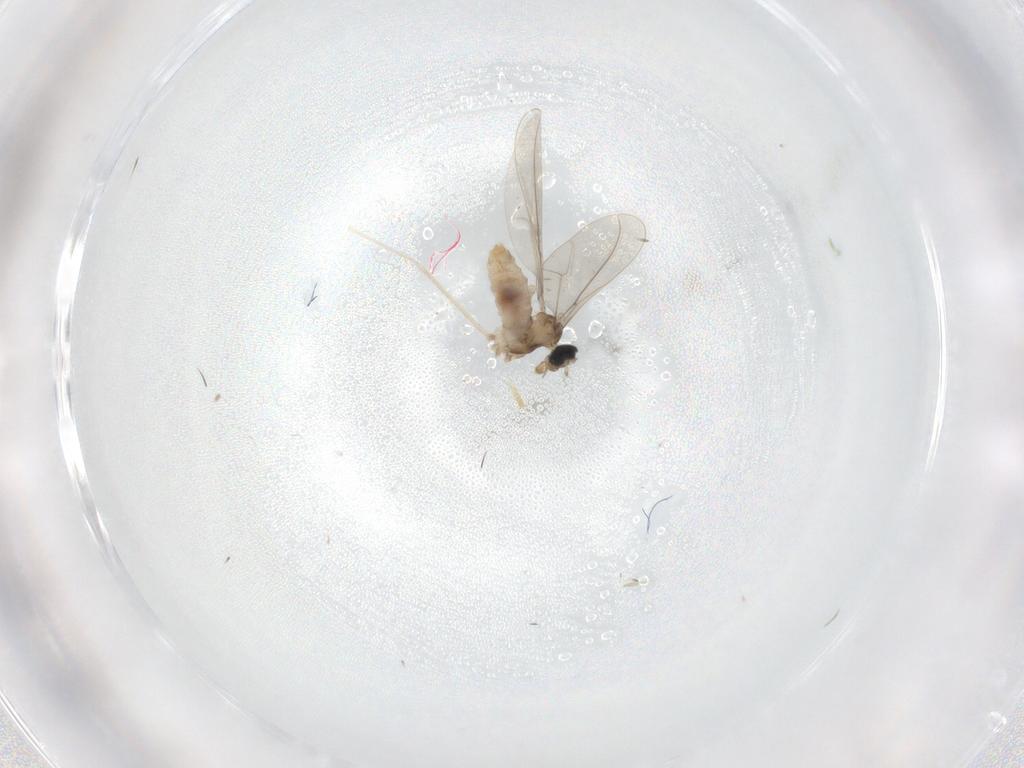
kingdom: Animalia
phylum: Arthropoda
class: Insecta
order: Diptera
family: Cecidomyiidae
